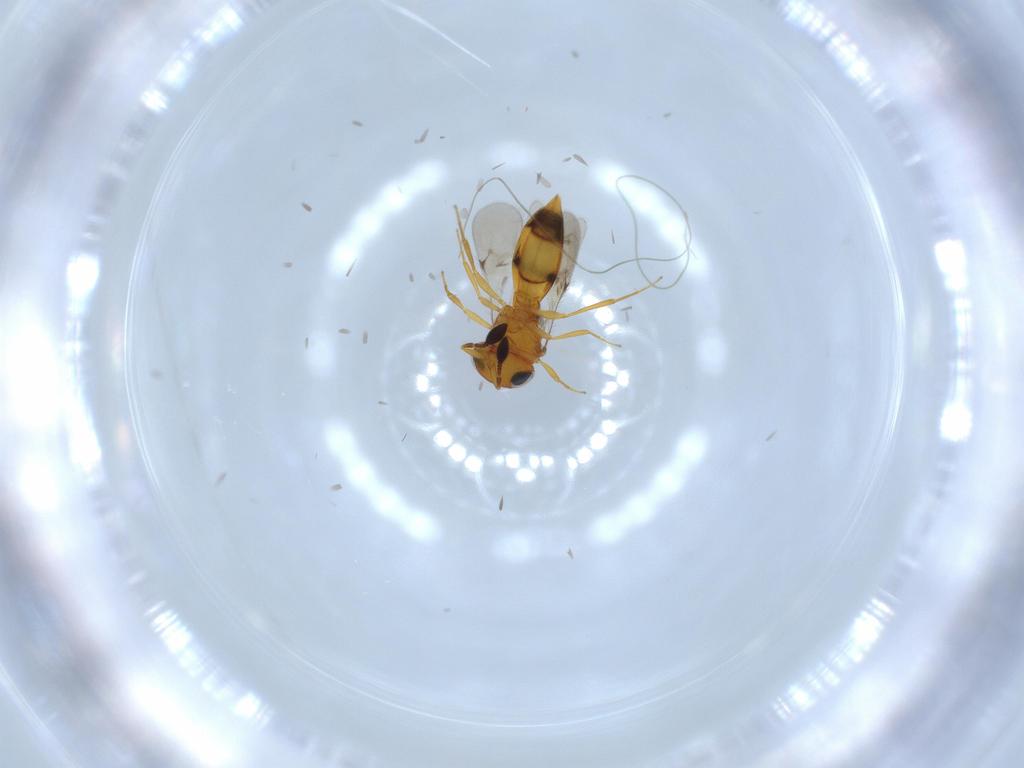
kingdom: Animalia
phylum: Arthropoda
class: Insecta
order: Hymenoptera
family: Scelionidae
